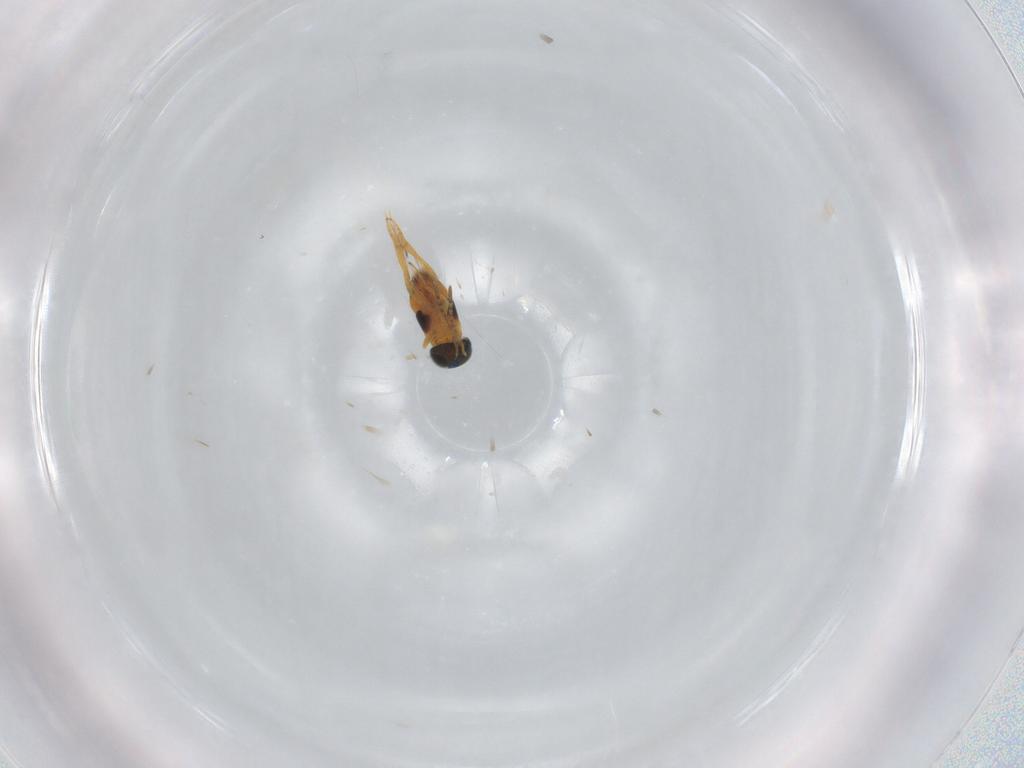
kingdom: Animalia
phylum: Arthropoda
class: Insecta
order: Hymenoptera
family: Encyrtidae
